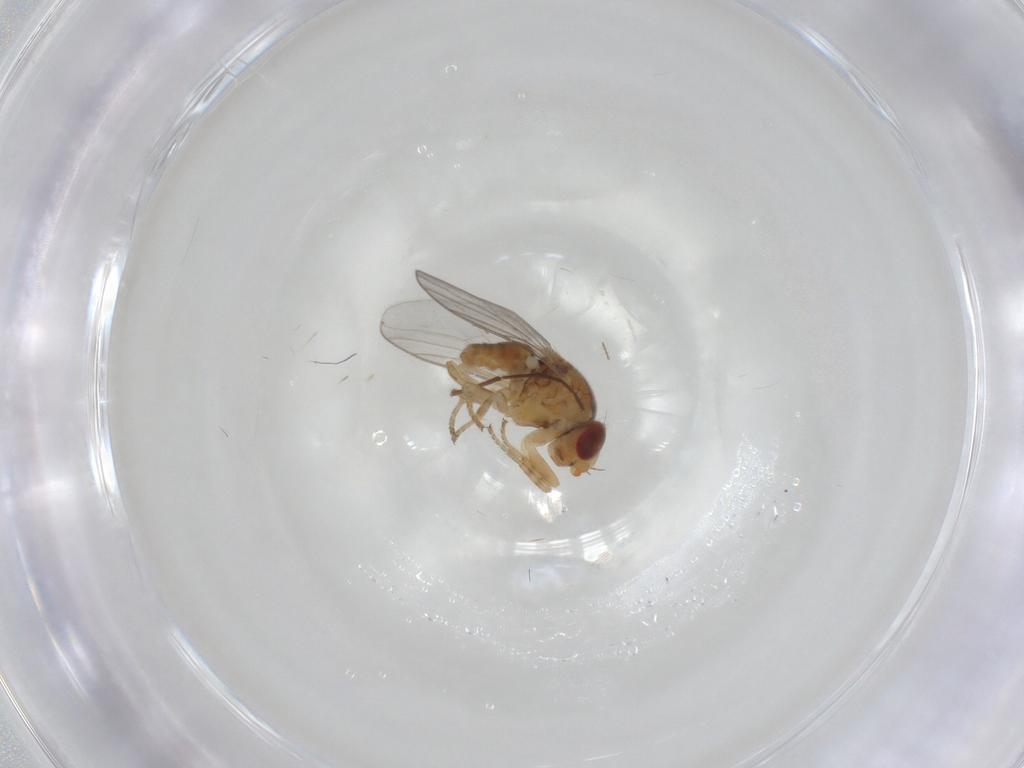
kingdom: Animalia
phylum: Arthropoda
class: Insecta
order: Diptera
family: Chloropidae
